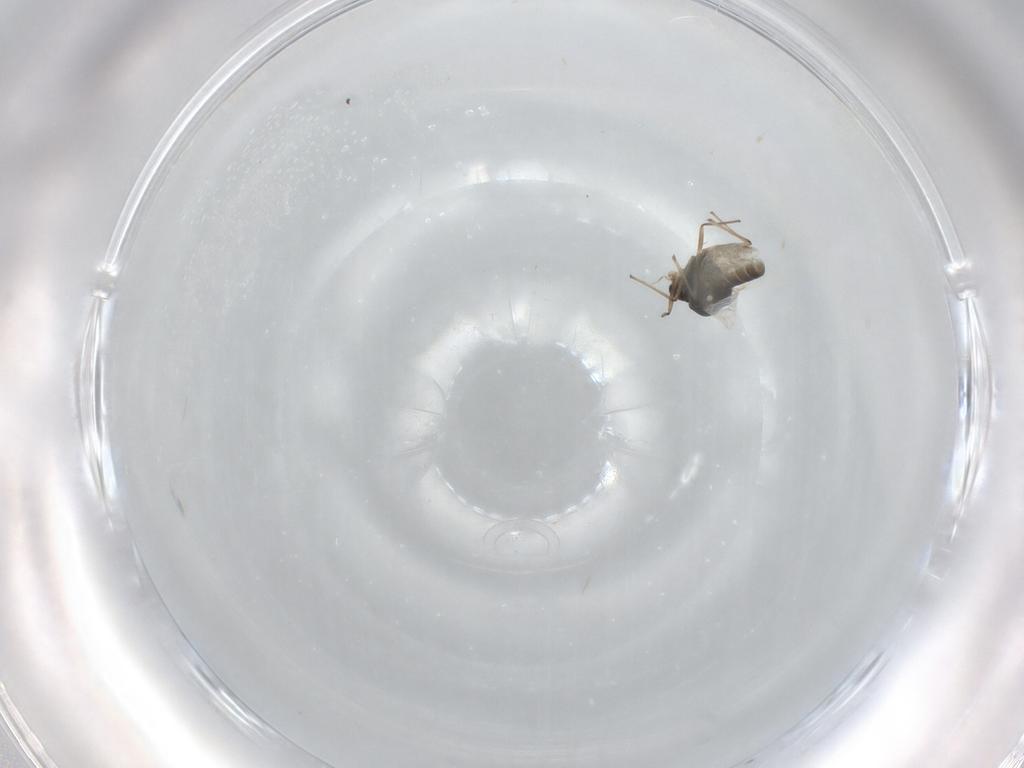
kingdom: Animalia
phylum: Arthropoda
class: Insecta
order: Diptera
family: Chironomidae
